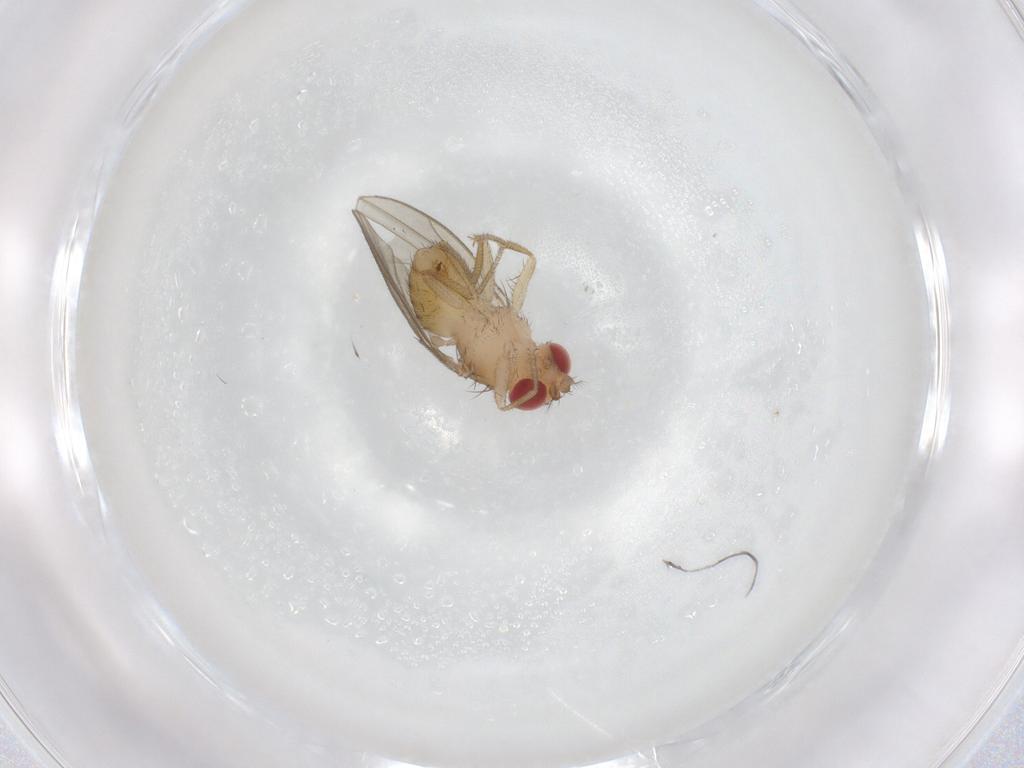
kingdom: Animalia
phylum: Arthropoda
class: Insecta
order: Diptera
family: Drosophilidae
